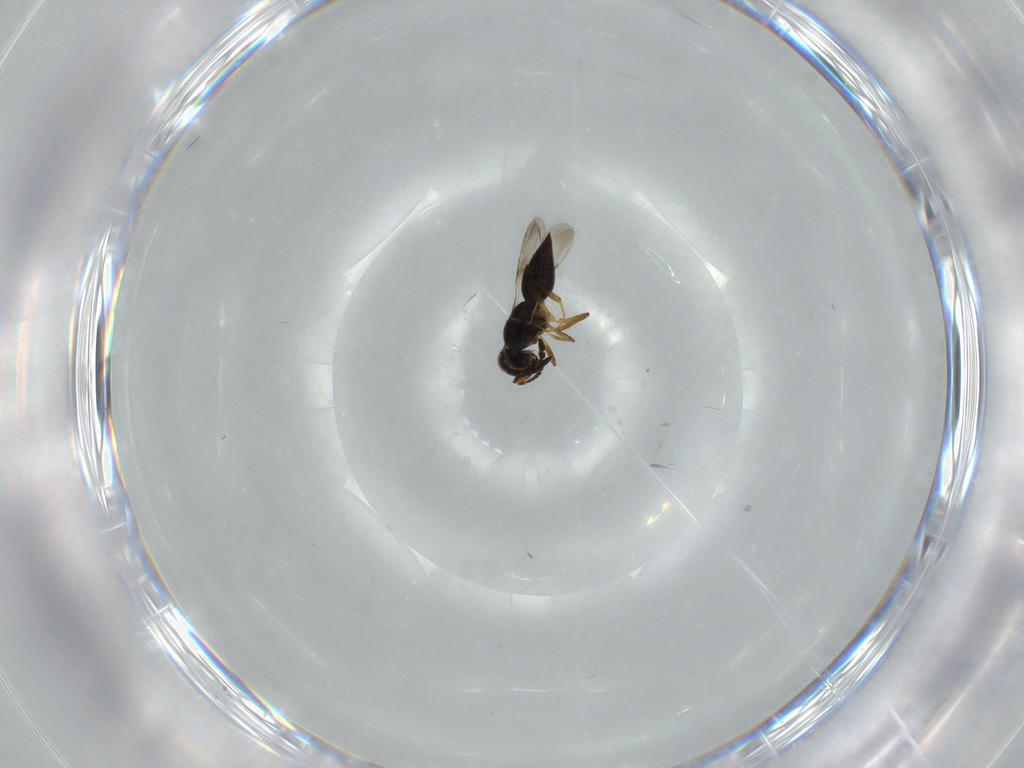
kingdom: Animalia
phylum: Arthropoda
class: Insecta
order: Hymenoptera
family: Ceraphronidae
